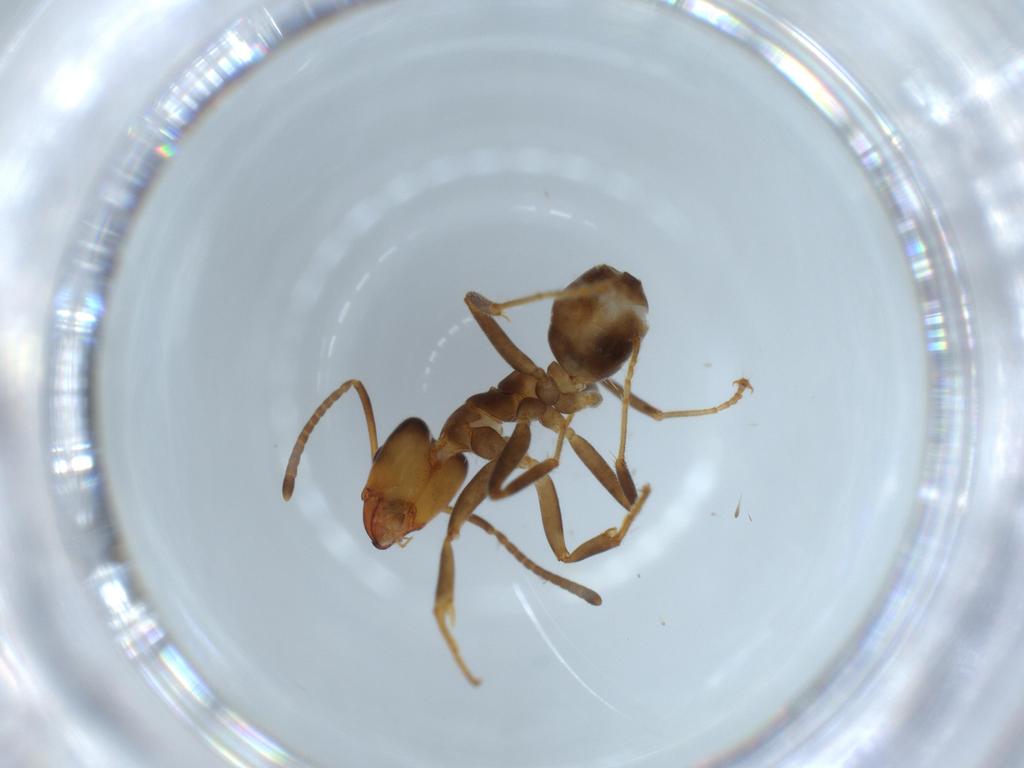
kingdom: Animalia
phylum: Arthropoda
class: Insecta
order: Hymenoptera
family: Formicidae
